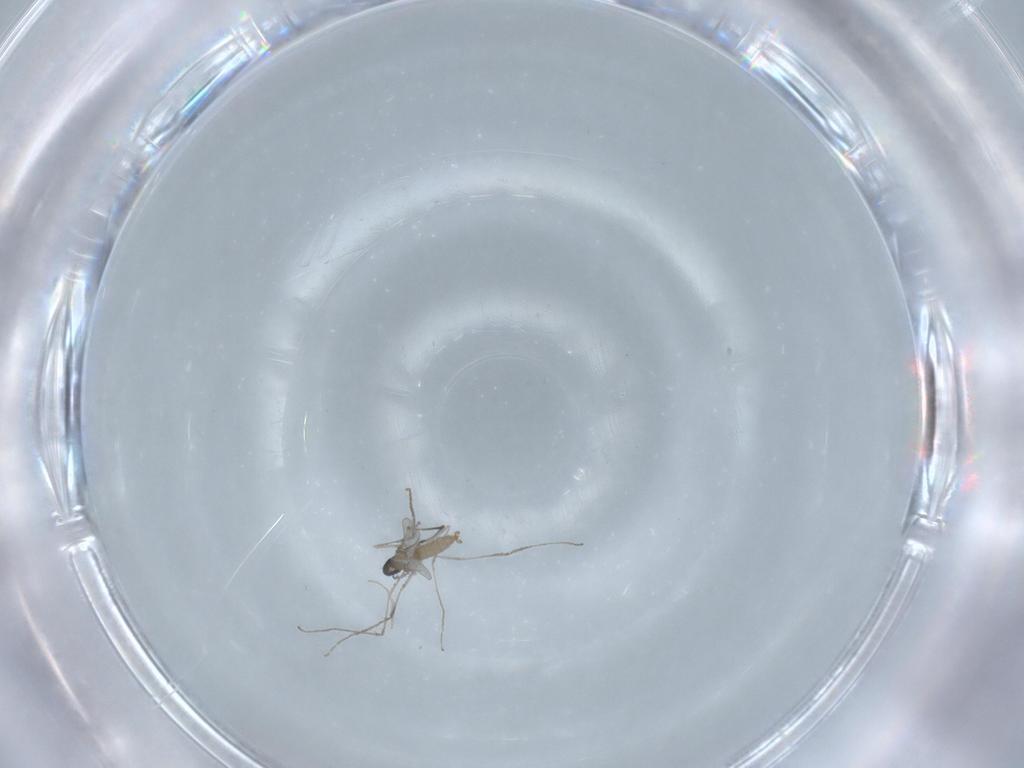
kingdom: Animalia
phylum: Arthropoda
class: Insecta
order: Diptera
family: Cecidomyiidae
